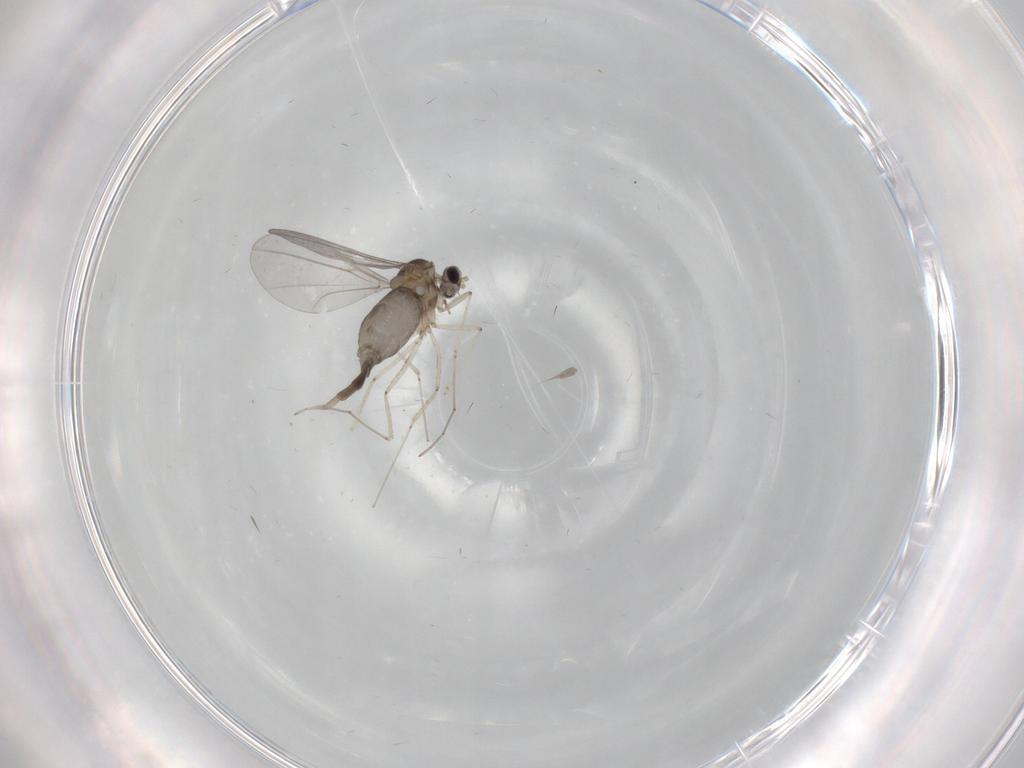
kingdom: Animalia
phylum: Arthropoda
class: Insecta
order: Diptera
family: Cecidomyiidae
